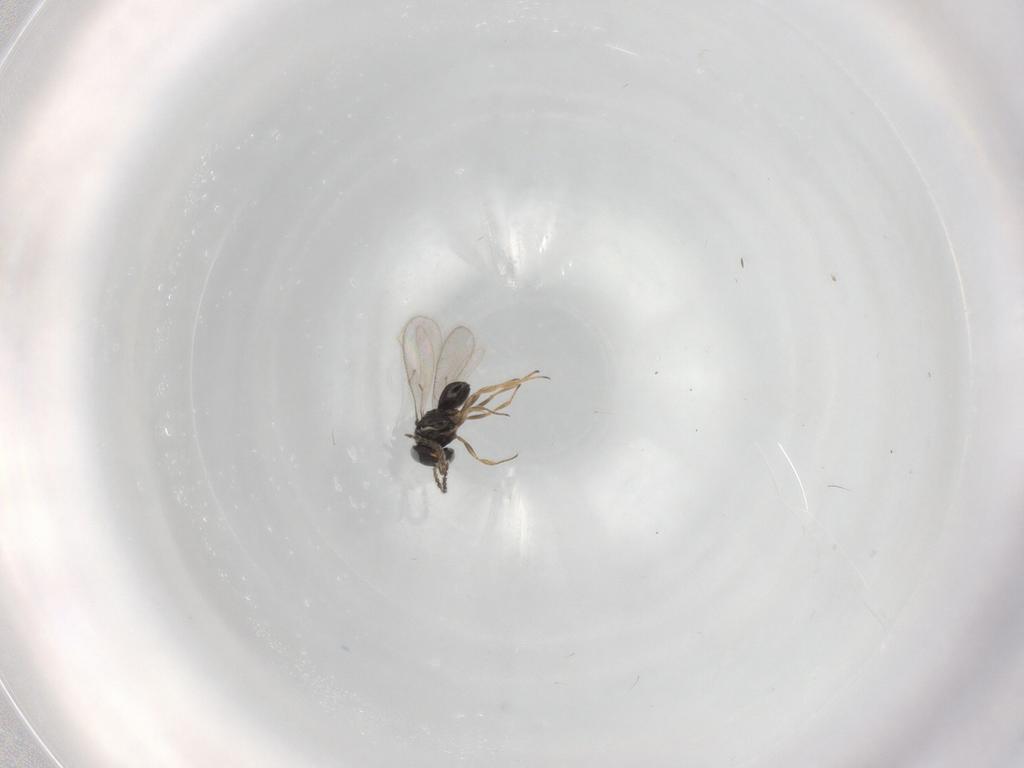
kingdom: Animalia
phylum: Arthropoda
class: Insecta
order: Hymenoptera
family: Scelionidae
